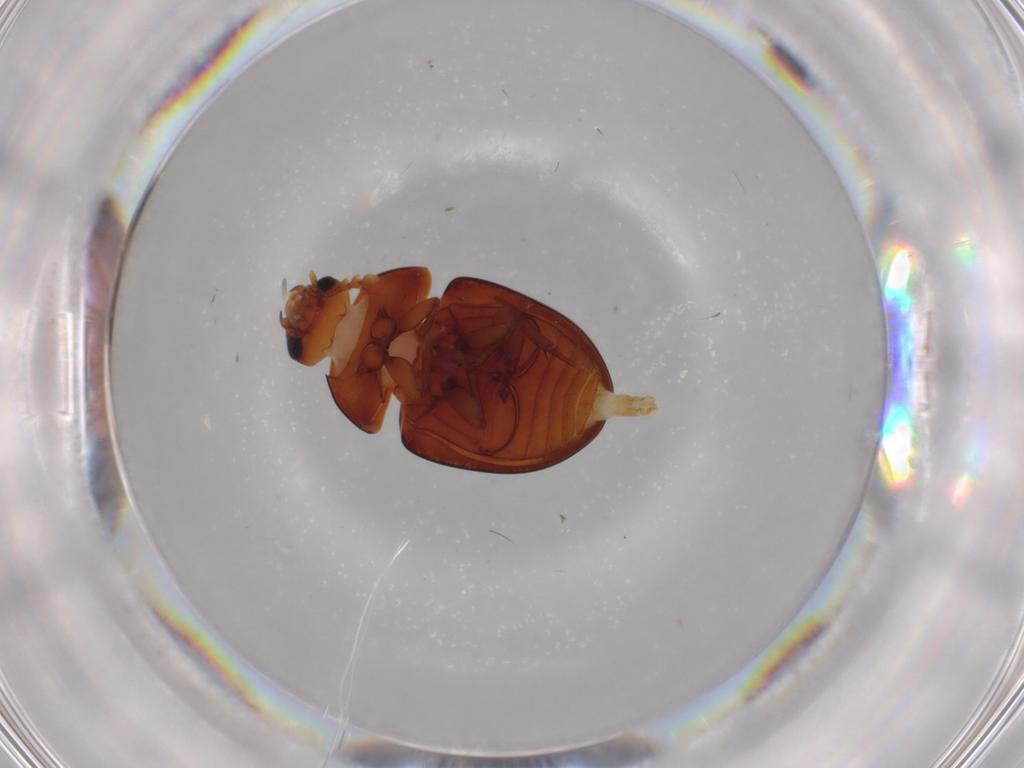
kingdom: Animalia
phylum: Arthropoda
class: Insecta
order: Coleoptera
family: Phalacridae
